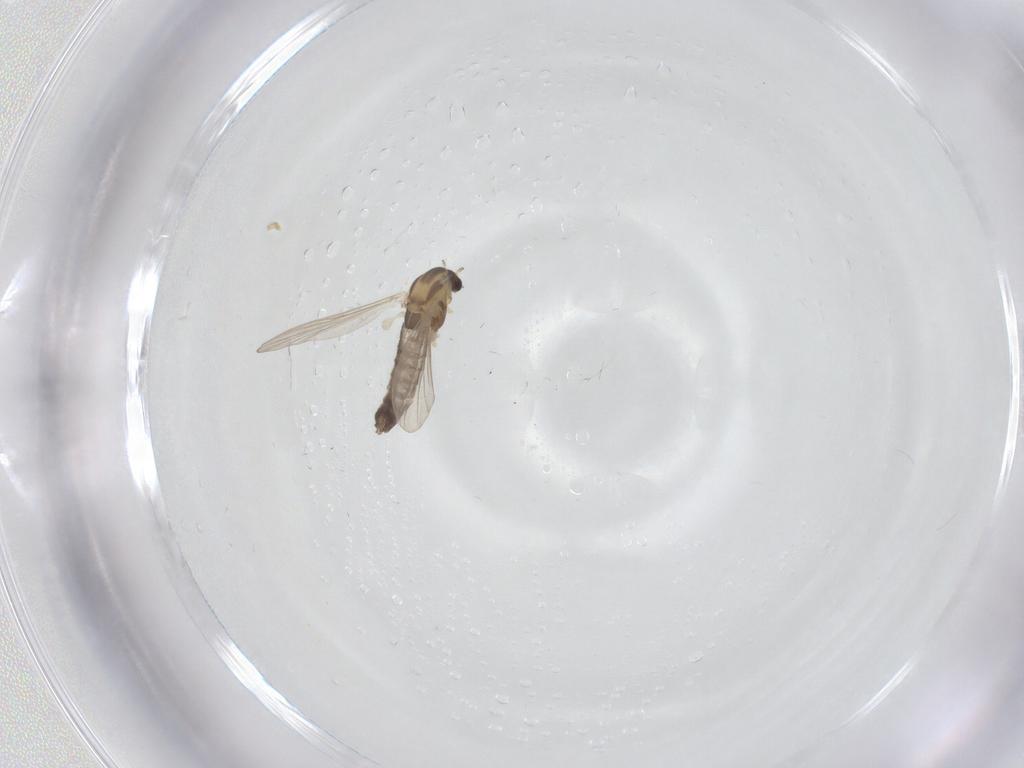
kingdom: Animalia
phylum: Arthropoda
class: Insecta
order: Diptera
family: Chironomidae
